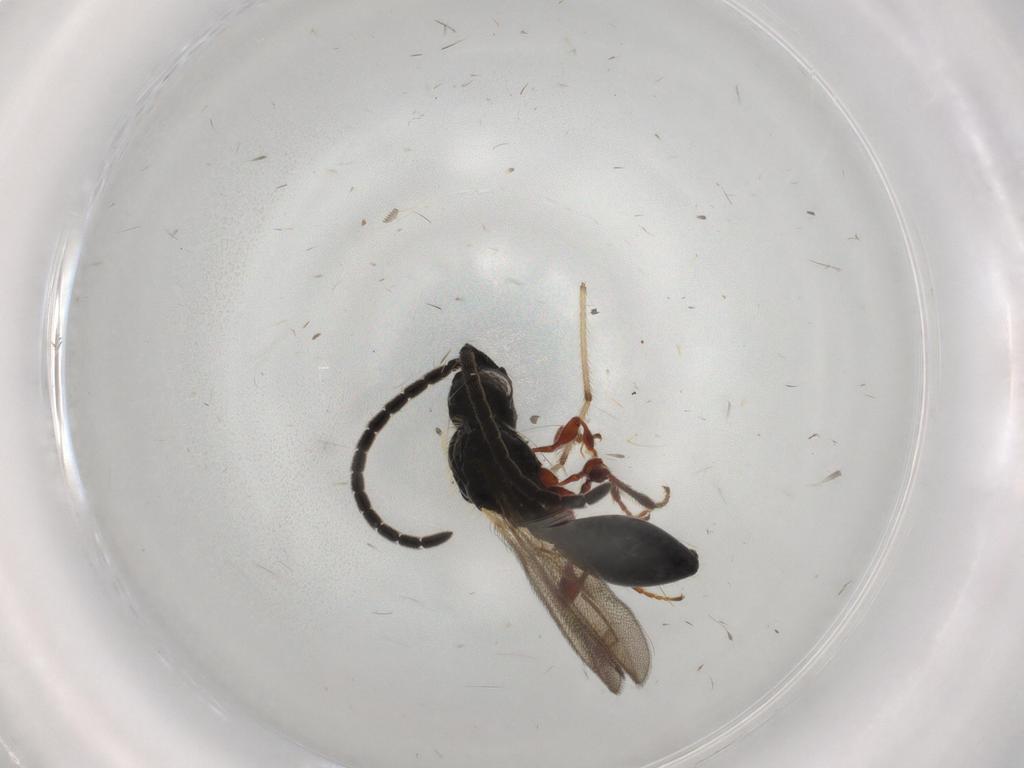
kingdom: Animalia
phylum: Arthropoda
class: Insecta
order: Hymenoptera
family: Diapriidae
